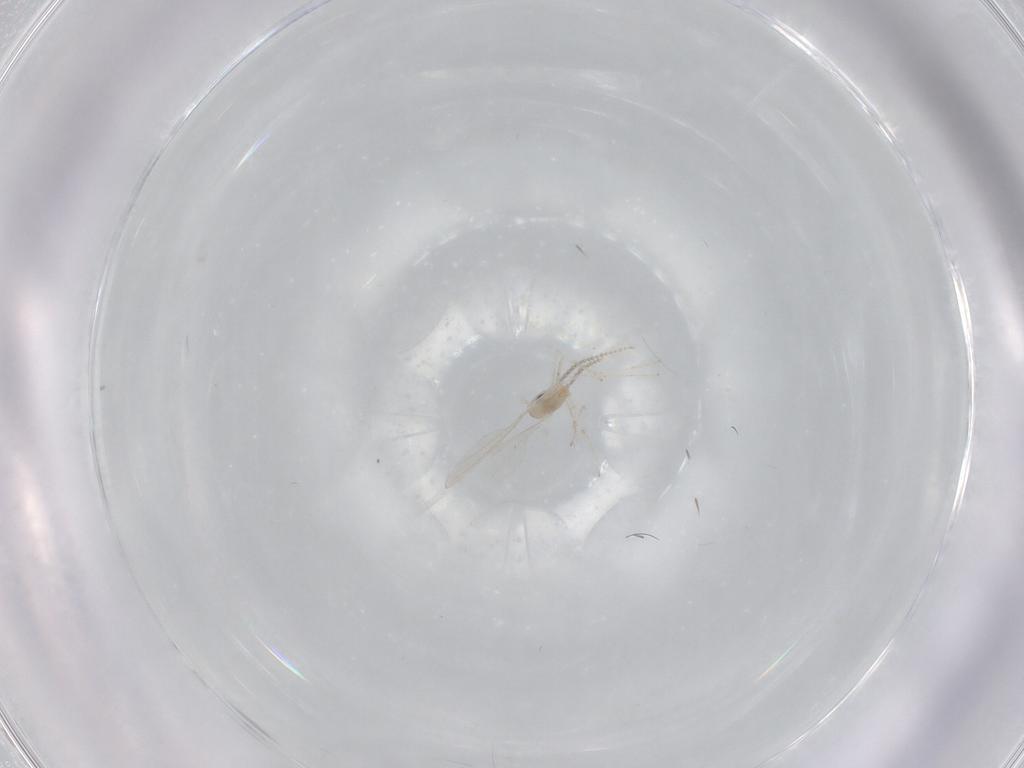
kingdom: Animalia
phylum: Arthropoda
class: Insecta
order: Diptera
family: Cecidomyiidae
